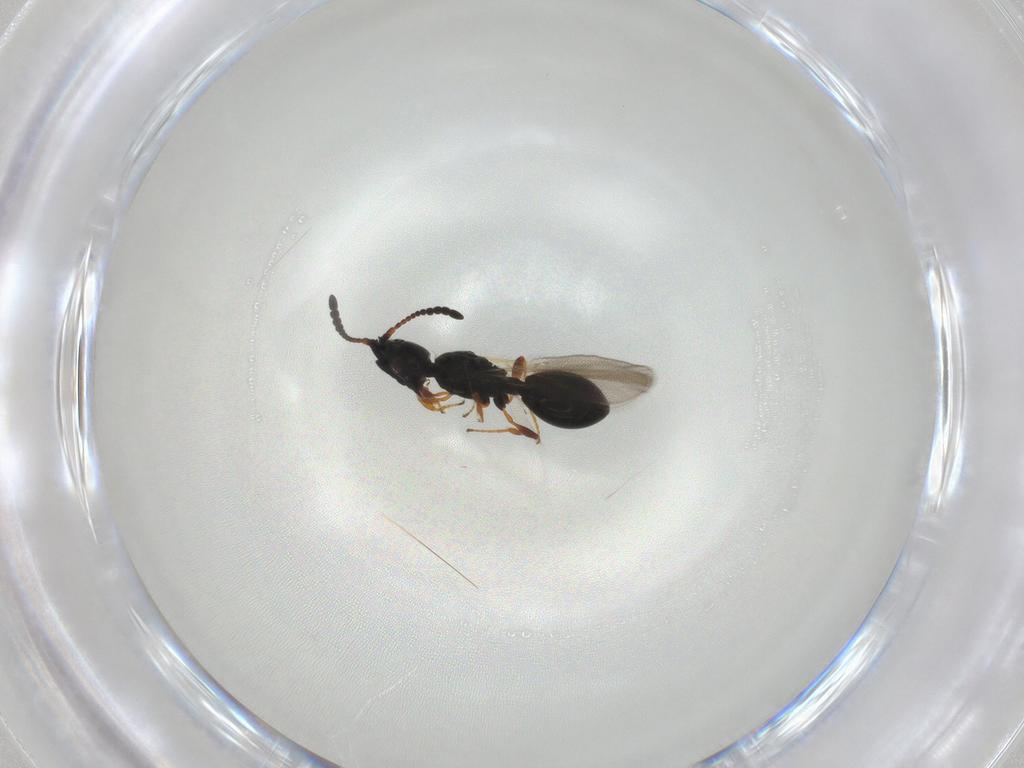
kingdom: Animalia
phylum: Arthropoda
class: Insecta
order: Hymenoptera
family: Diapriidae
